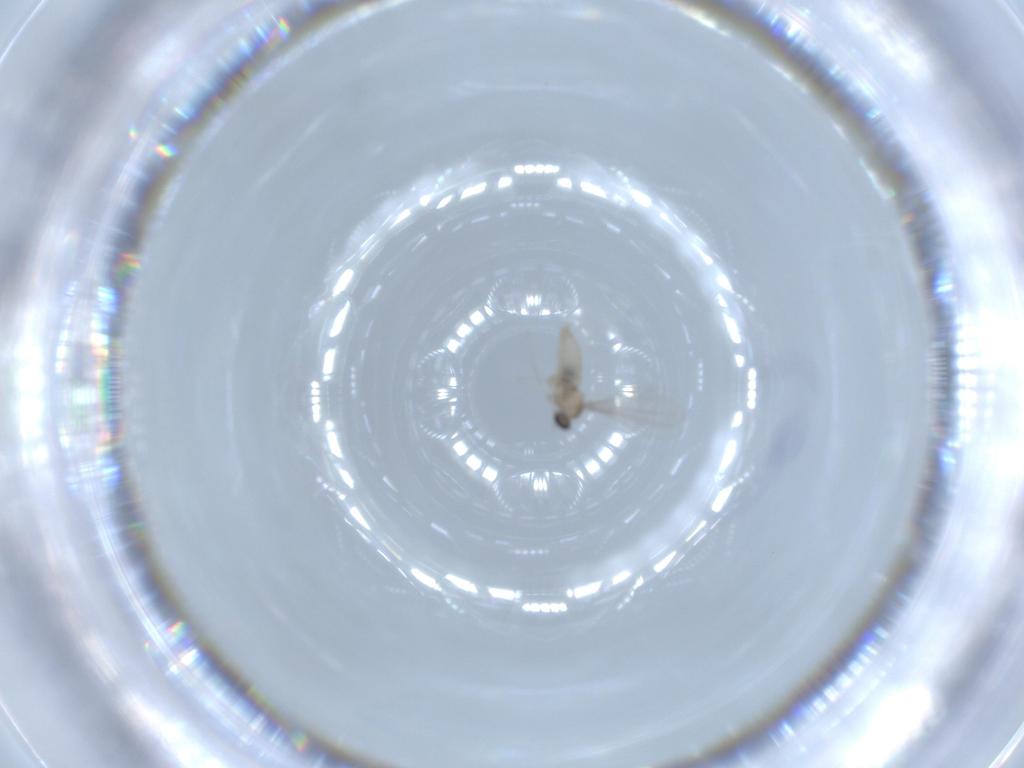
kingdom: Animalia
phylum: Arthropoda
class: Insecta
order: Diptera
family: Cecidomyiidae
